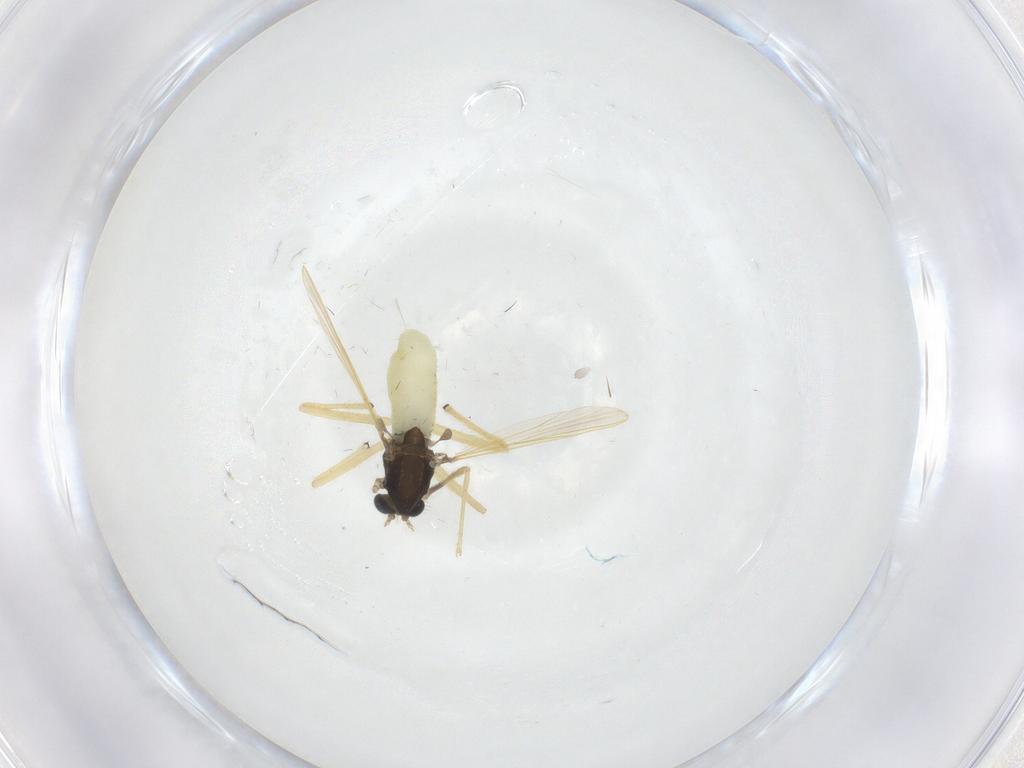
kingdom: Animalia
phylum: Arthropoda
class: Insecta
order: Diptera
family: Chironomidae
